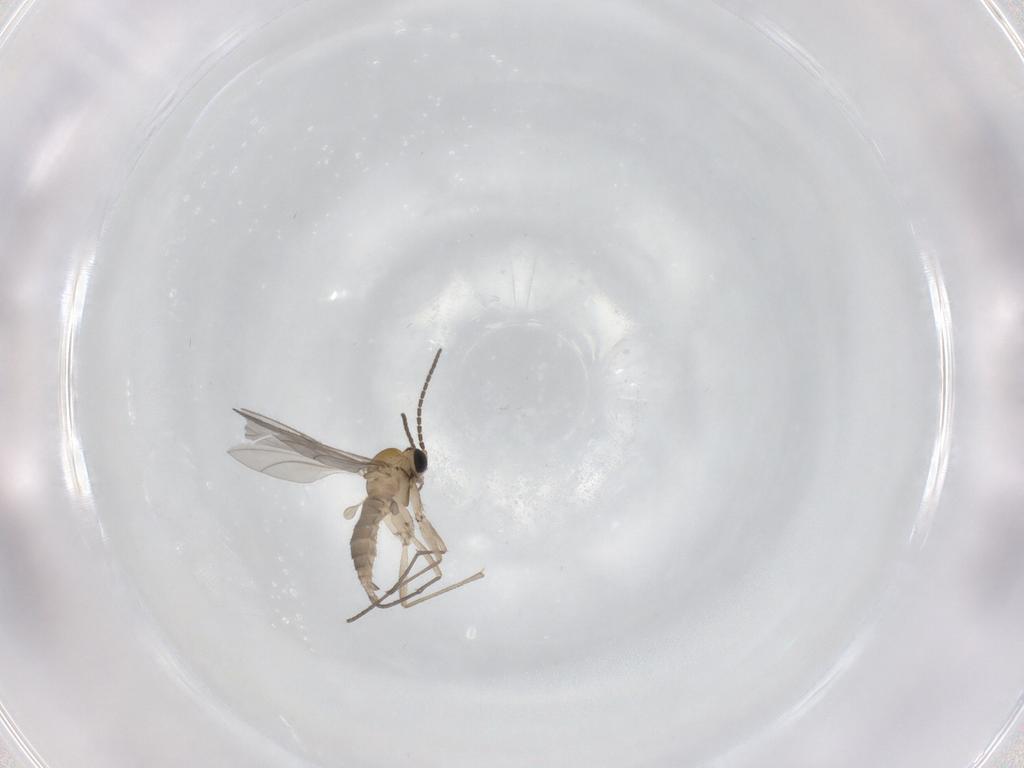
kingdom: Animalia
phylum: Arthropoda
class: Insecta
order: Diptera
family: Sciaridae
